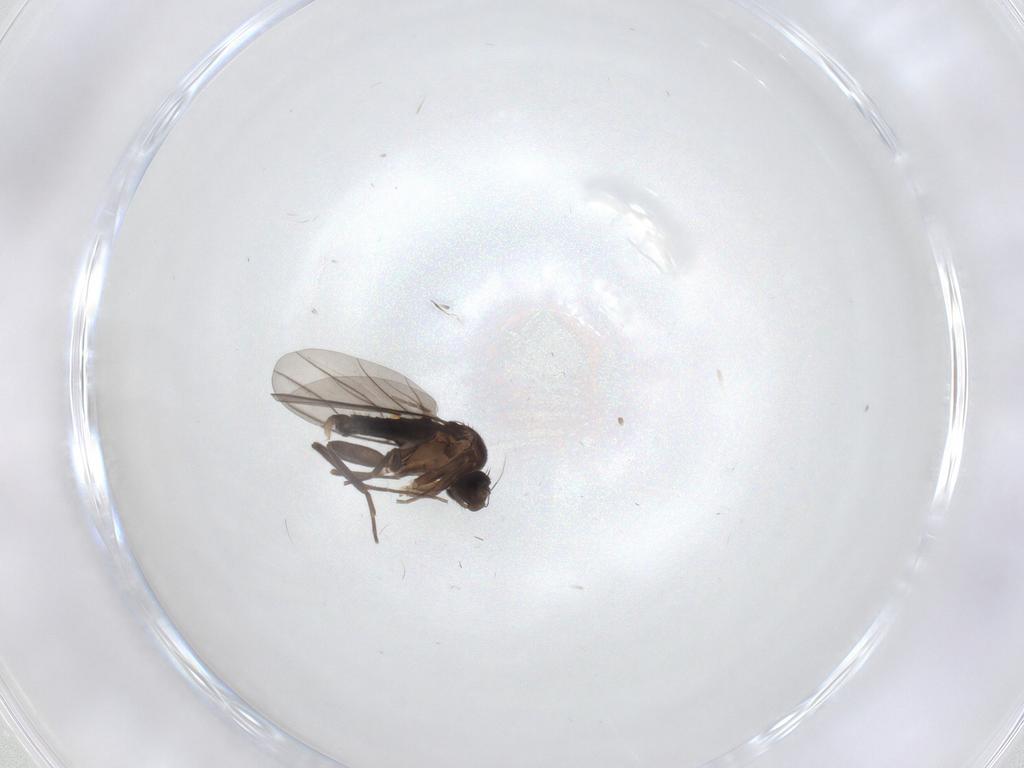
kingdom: Animalia
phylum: Arthropoda
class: Insecta
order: Diptera
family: Phoridae
